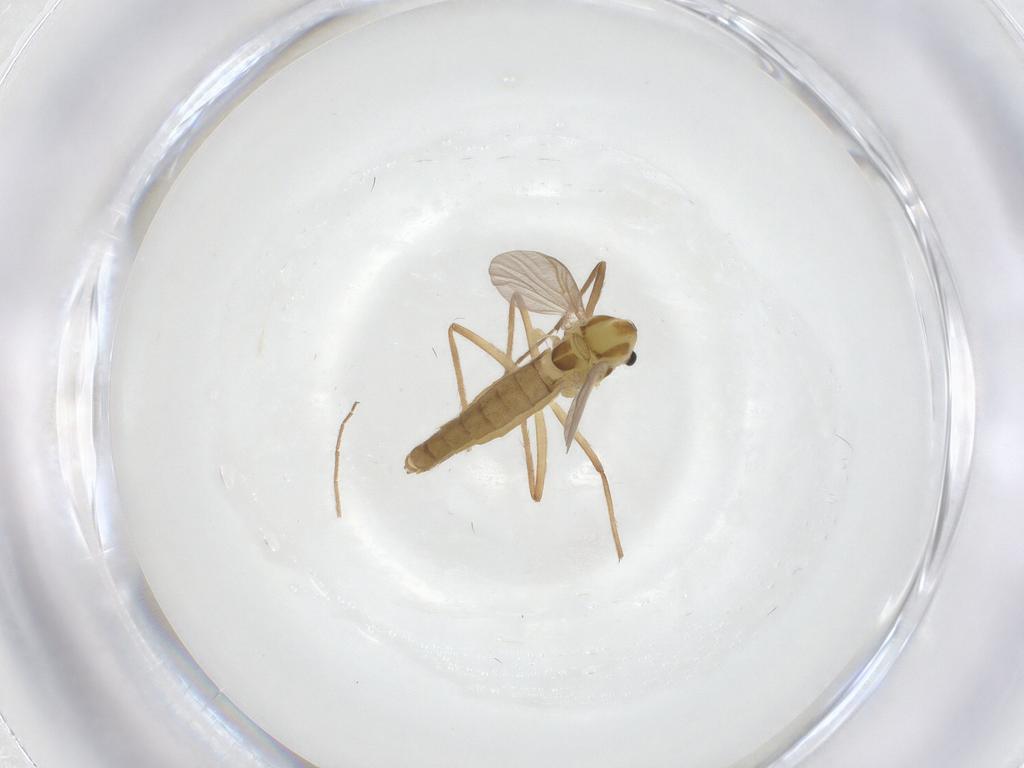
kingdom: Animalia
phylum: Arthropoda
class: Insecta
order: Diptera
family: Chironomidae
